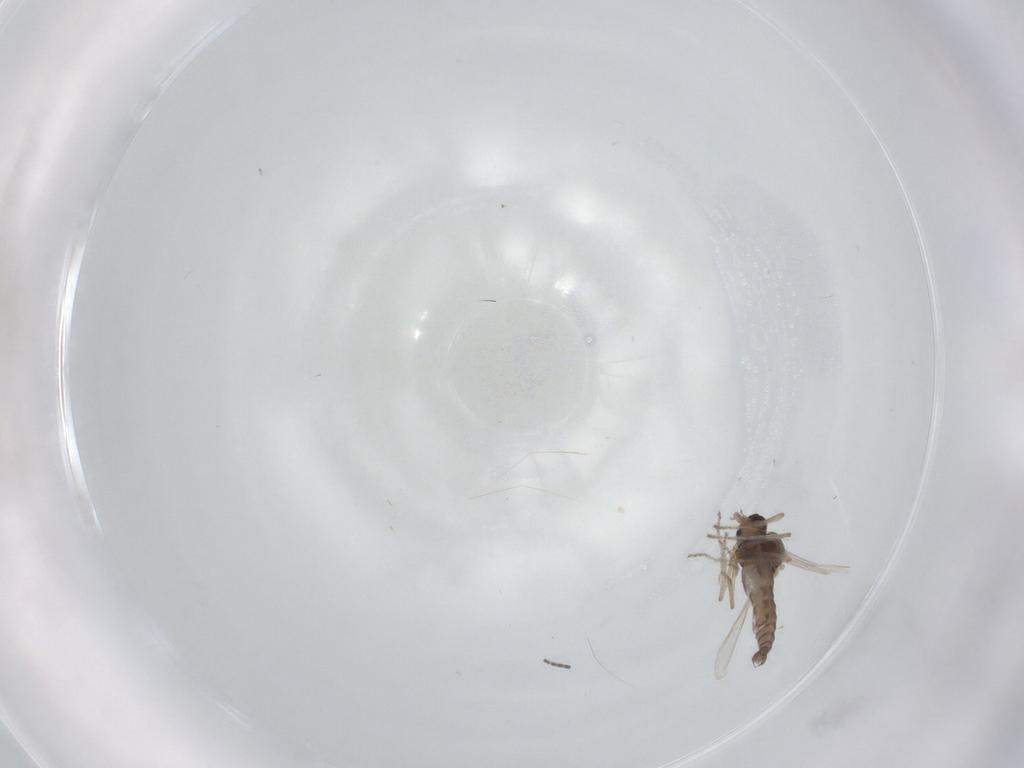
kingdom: Animalia
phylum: Arthropoda
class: Insecta
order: Diptera
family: Ceratopogonidae
